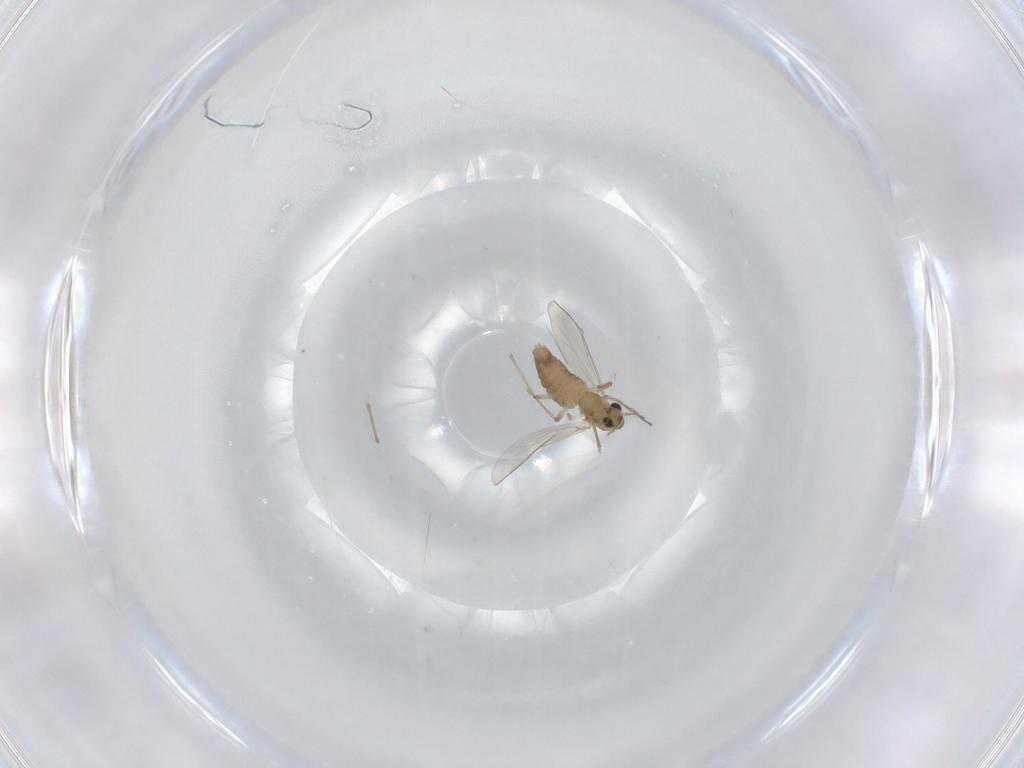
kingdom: Animalia
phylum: Arthropoda
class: Insecta
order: Diptera
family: Chironomidae
